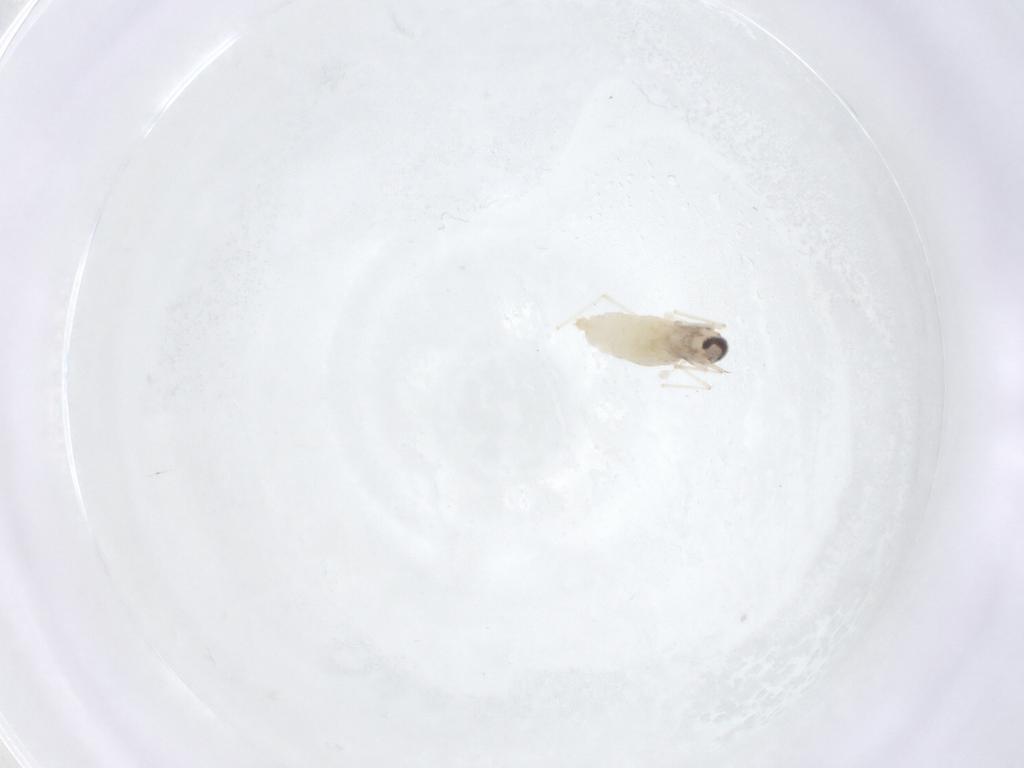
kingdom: Animalia
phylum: Arthropoda
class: Insecta
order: Diptera
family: Cecidomyiidae
